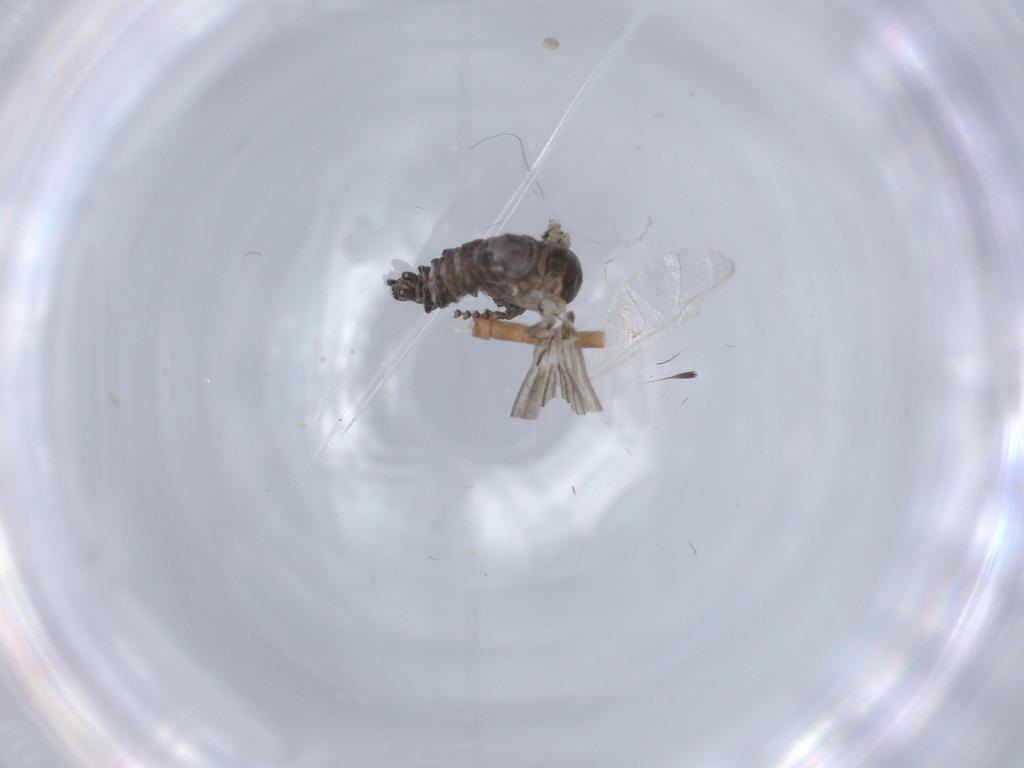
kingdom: Animalia
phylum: Arthropoda
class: Insecta
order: Diptera
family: Psychodidae
